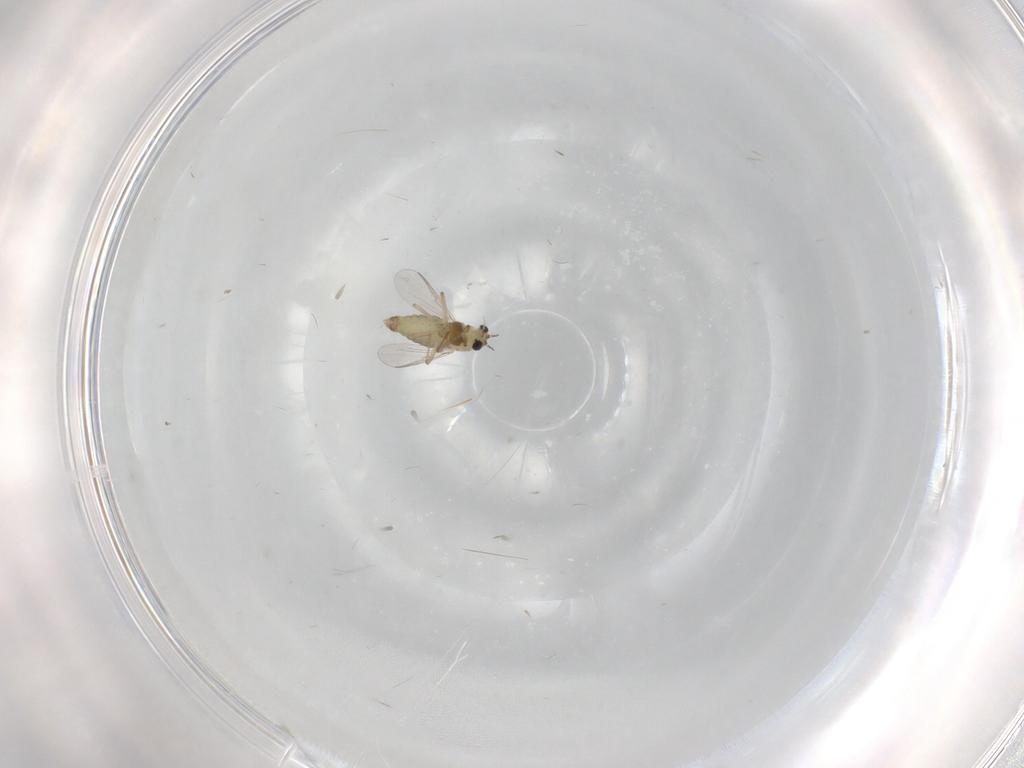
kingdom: Animalia
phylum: Arthropoda
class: Insecta
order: Diptera
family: Chironomidae
